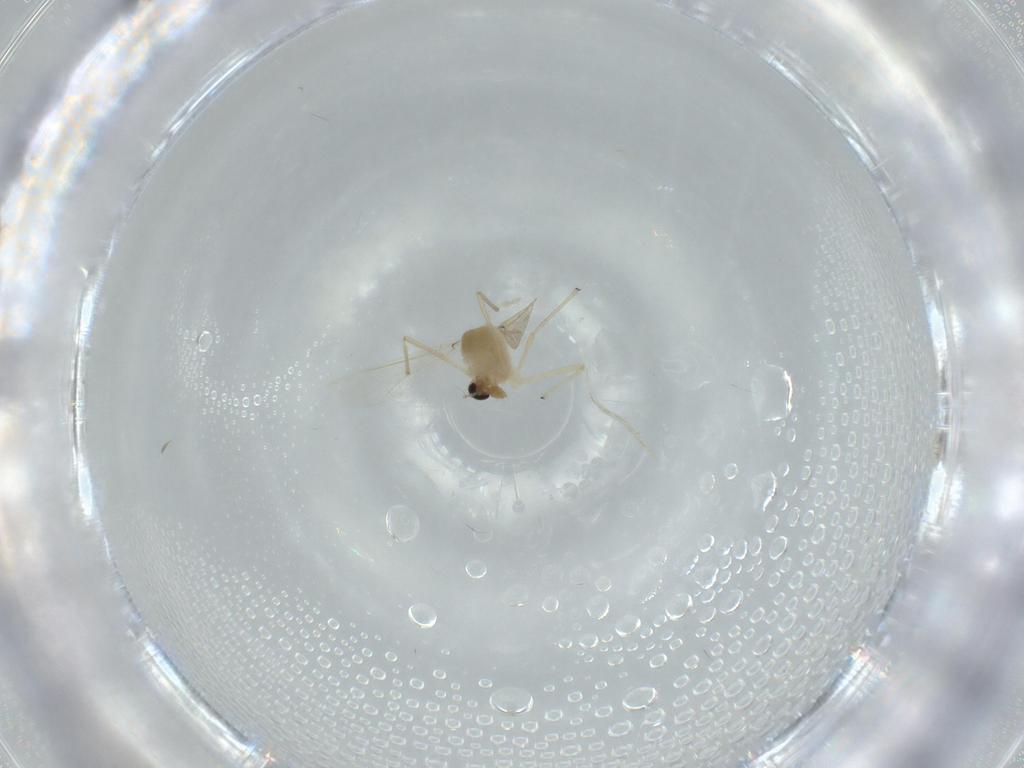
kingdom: Animalia
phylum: Arthropoda
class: Insecta
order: Diptera
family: Chironomidae
